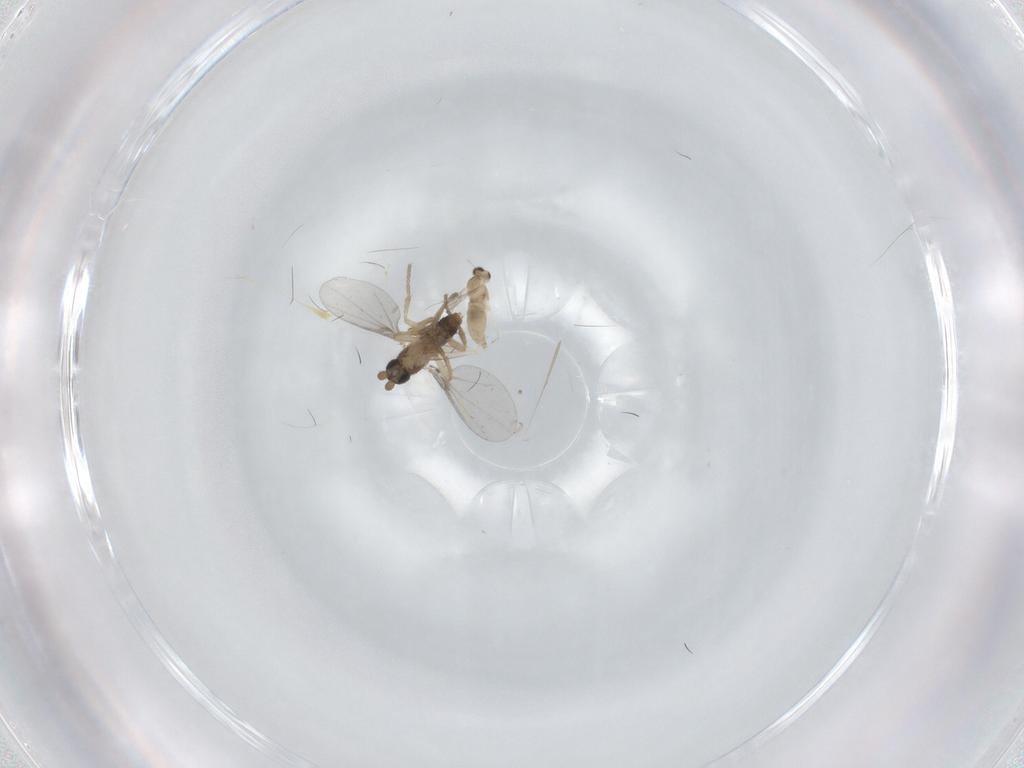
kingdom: Animalia
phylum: Arthropoda
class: Insecta
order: Diptera
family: Cecidomyiidae
